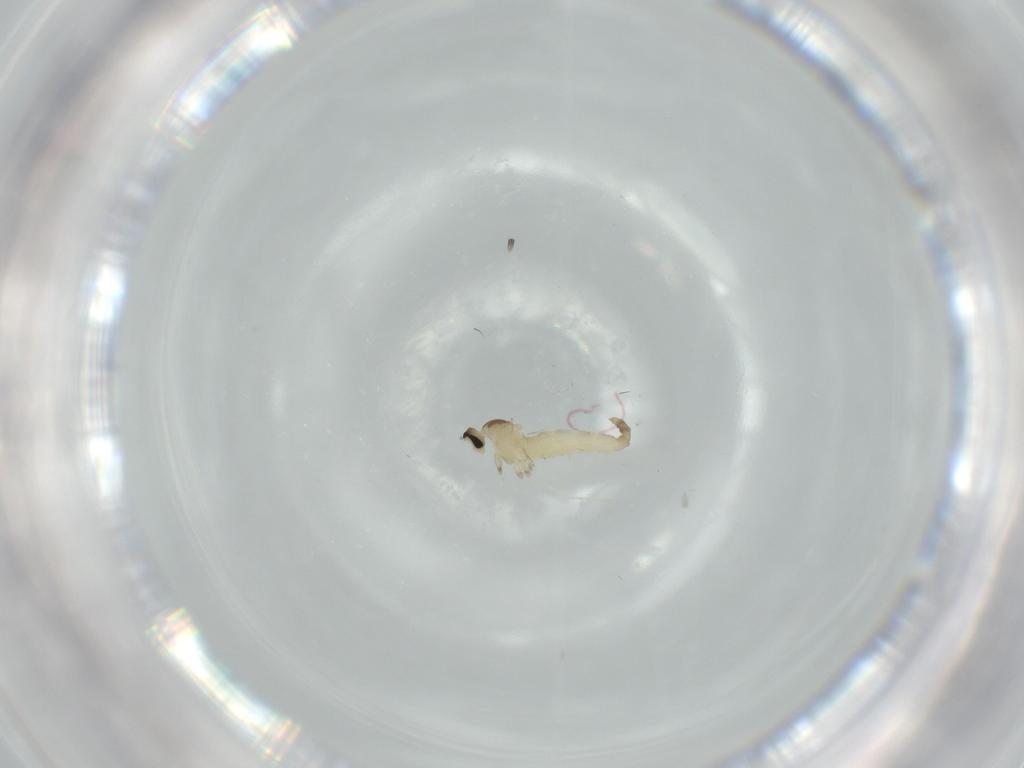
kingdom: Animalia
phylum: Arthropoda
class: Insecta
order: Diptera
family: Cecidomyiidae
